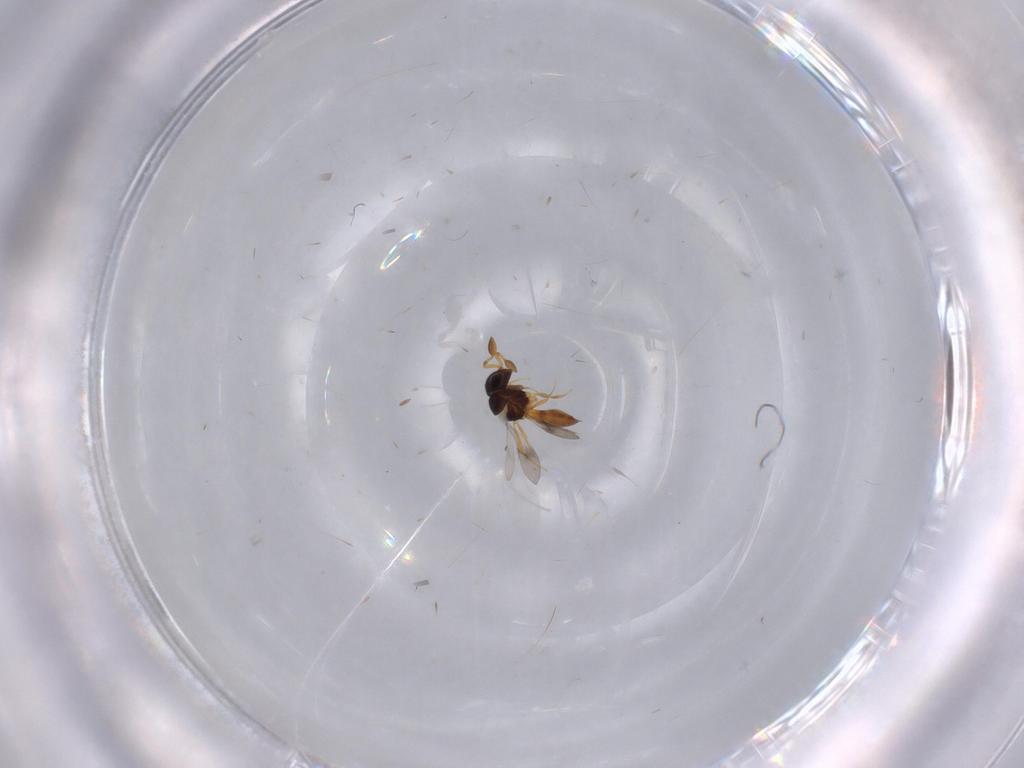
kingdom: Animalia
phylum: Arthropoda
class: Insecta
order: Hymenoptera
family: Scelionidae
